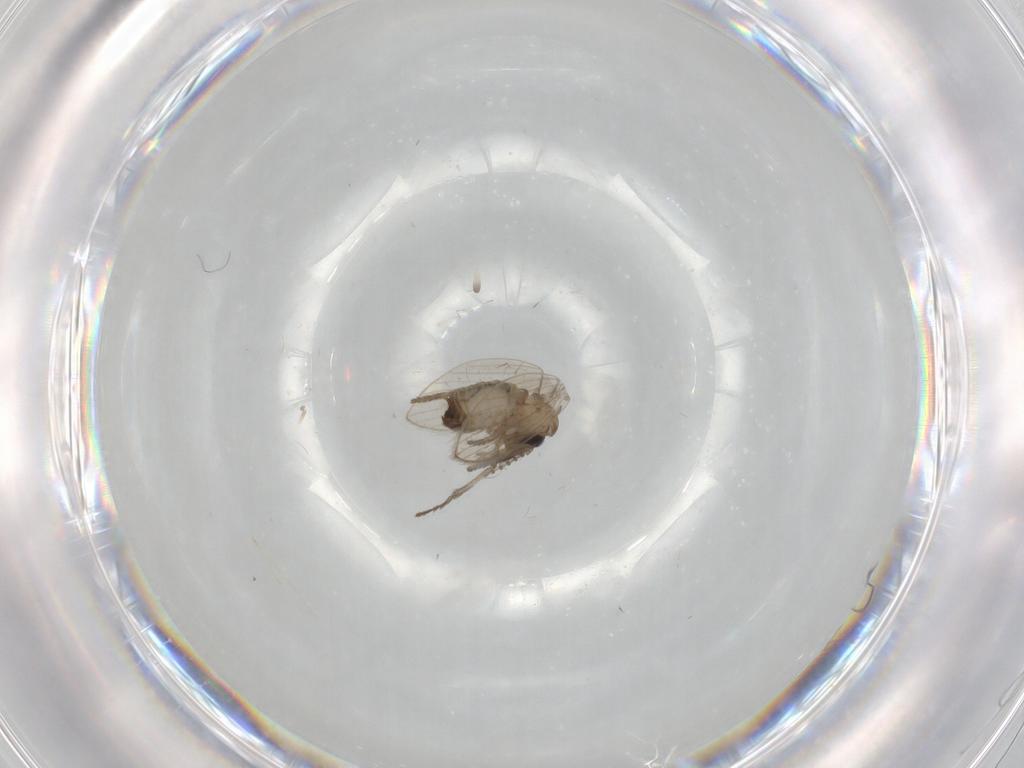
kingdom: Animalia
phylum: Arthropoda
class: Insecta
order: Diptera
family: Psychodidae
